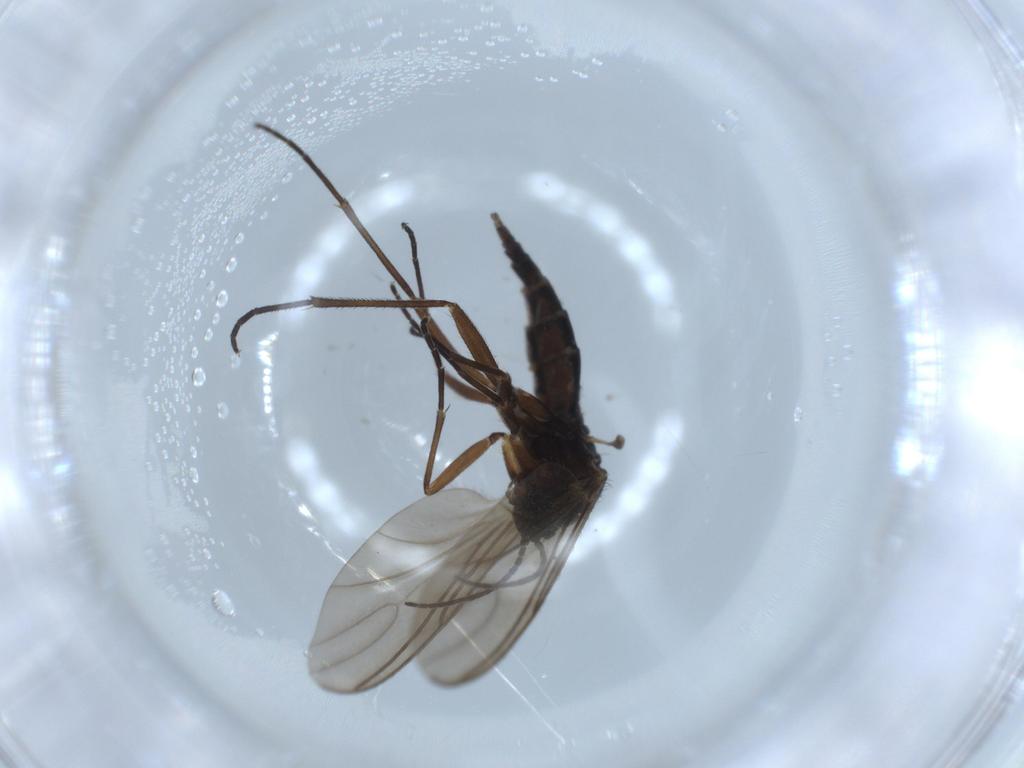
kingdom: Animalia
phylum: Arthropoda
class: Insecta
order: Diptera
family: Sciaridae
